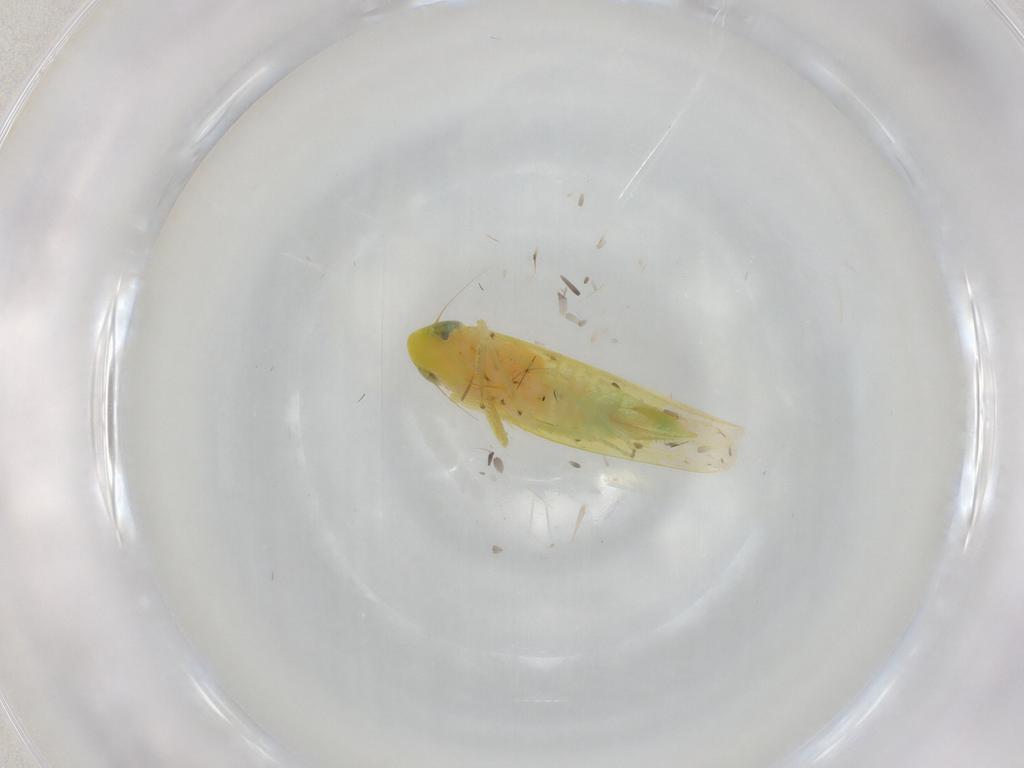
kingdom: Animalia
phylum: Arthropoda
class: Insecta
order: Hemiptera
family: Cicadellidae
